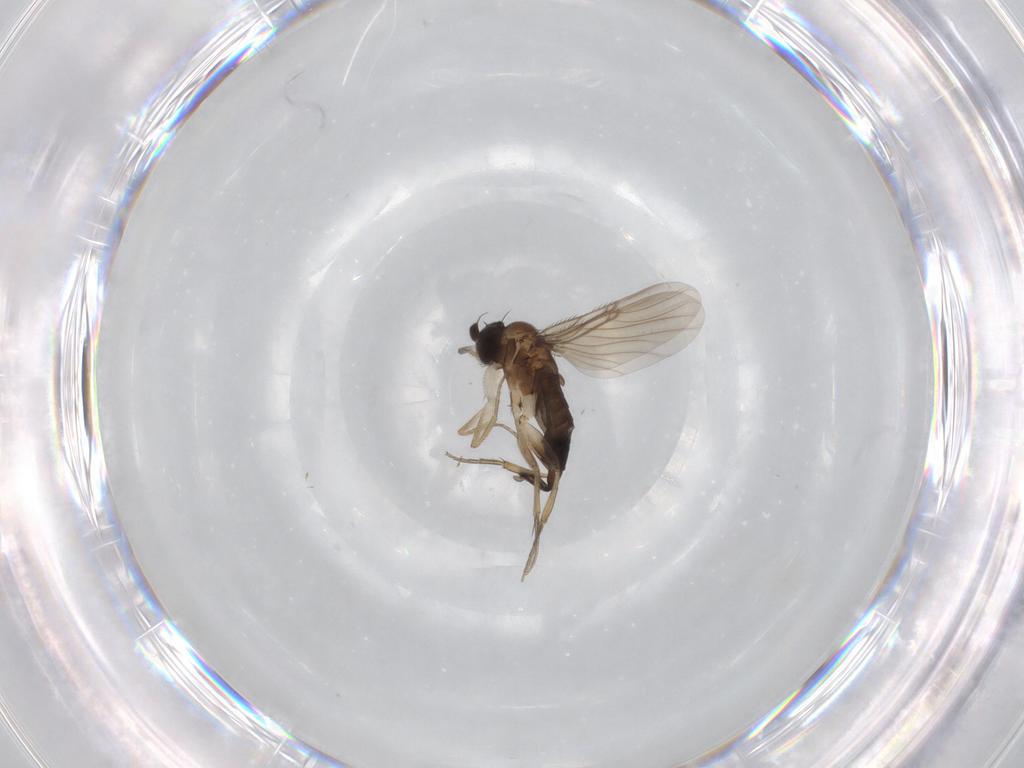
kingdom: Animalia
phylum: Arthropoda
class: Insecta
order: Diptera
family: Phoridae
